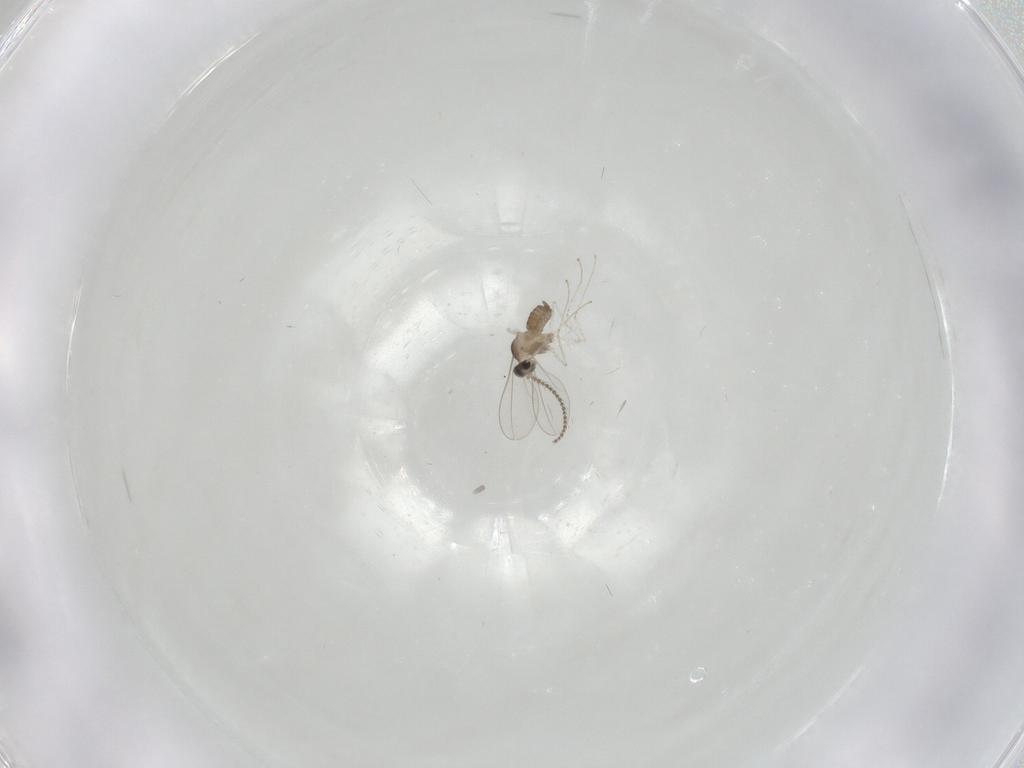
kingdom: Animalia
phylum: Arthropoda
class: Insecta
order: Diptera
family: Cecidomyiidae
